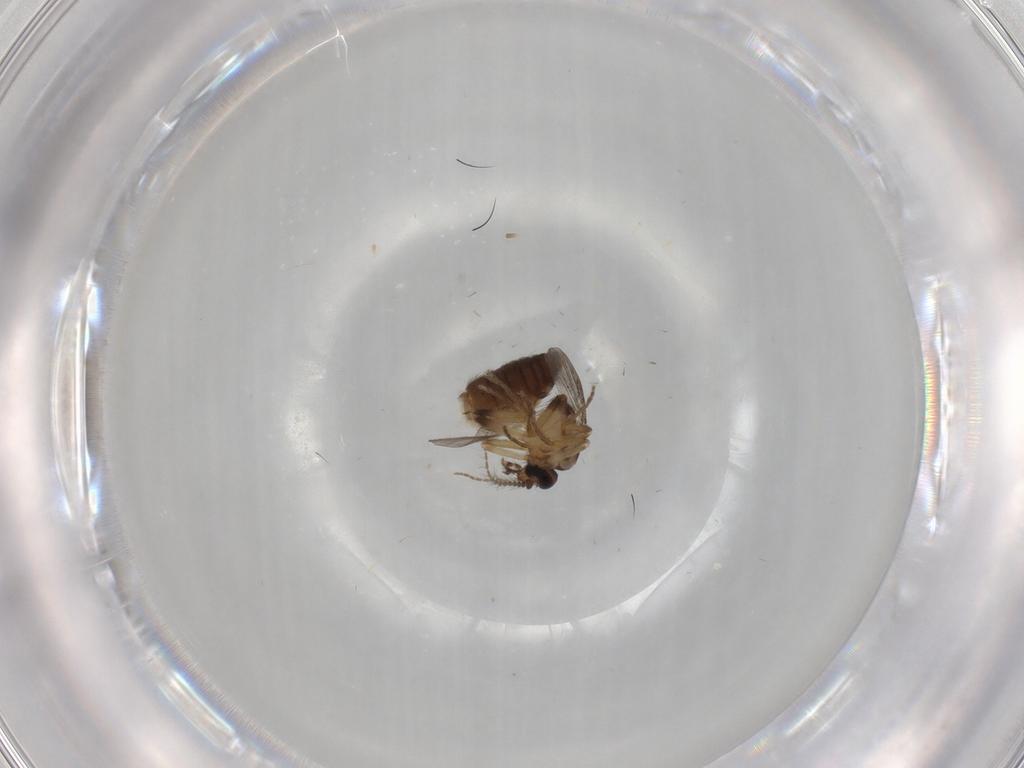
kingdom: Animalia
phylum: Arthropoda
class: Insecta
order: Diptera
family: Ceratopogonidae
